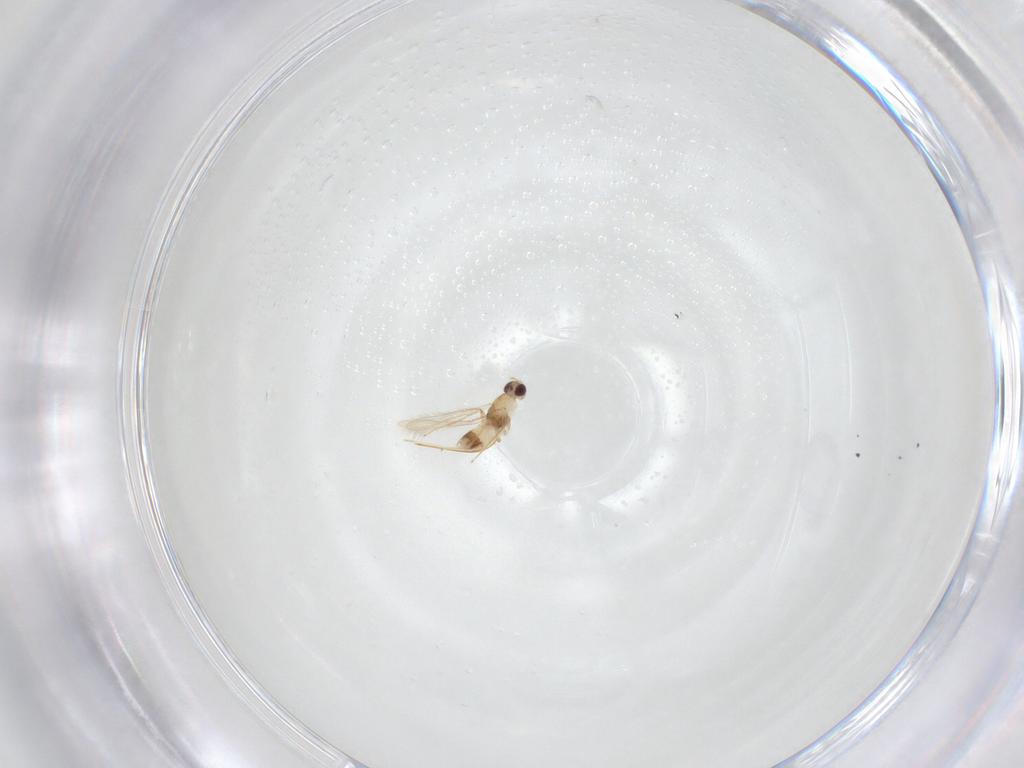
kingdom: Animalia
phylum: Arthropoda
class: Insecta
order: Hymenoptera
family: Mymaridae
